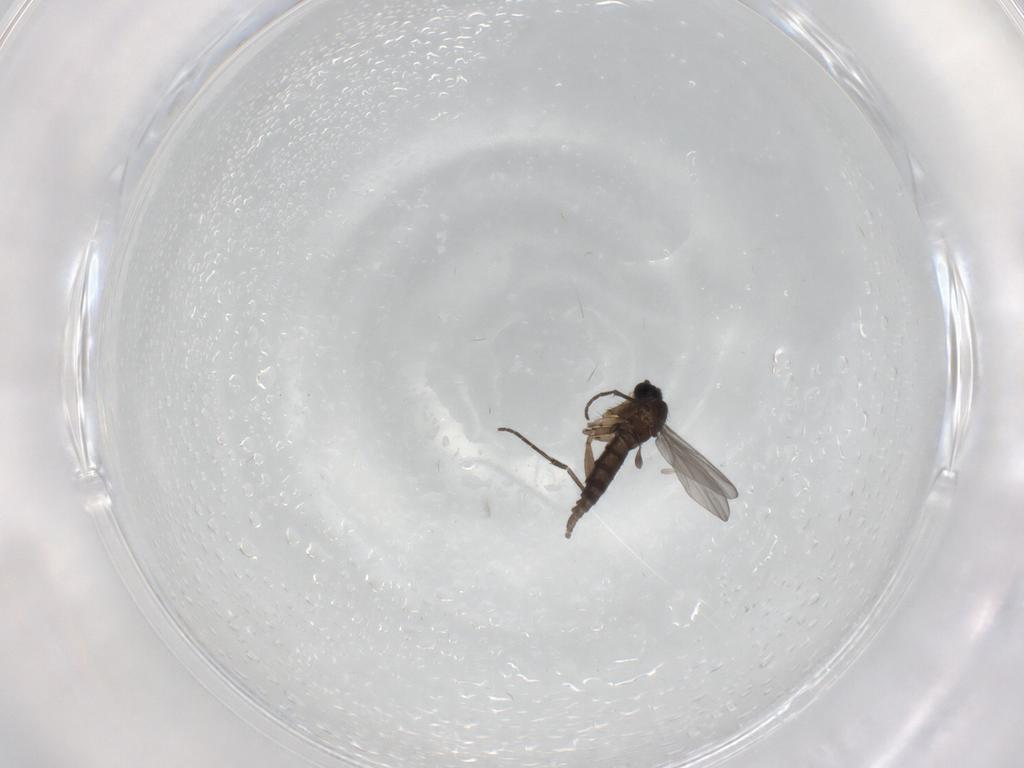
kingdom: Animalia
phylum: Arthropoda
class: Insecta
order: Diptera
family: Sciaridae
